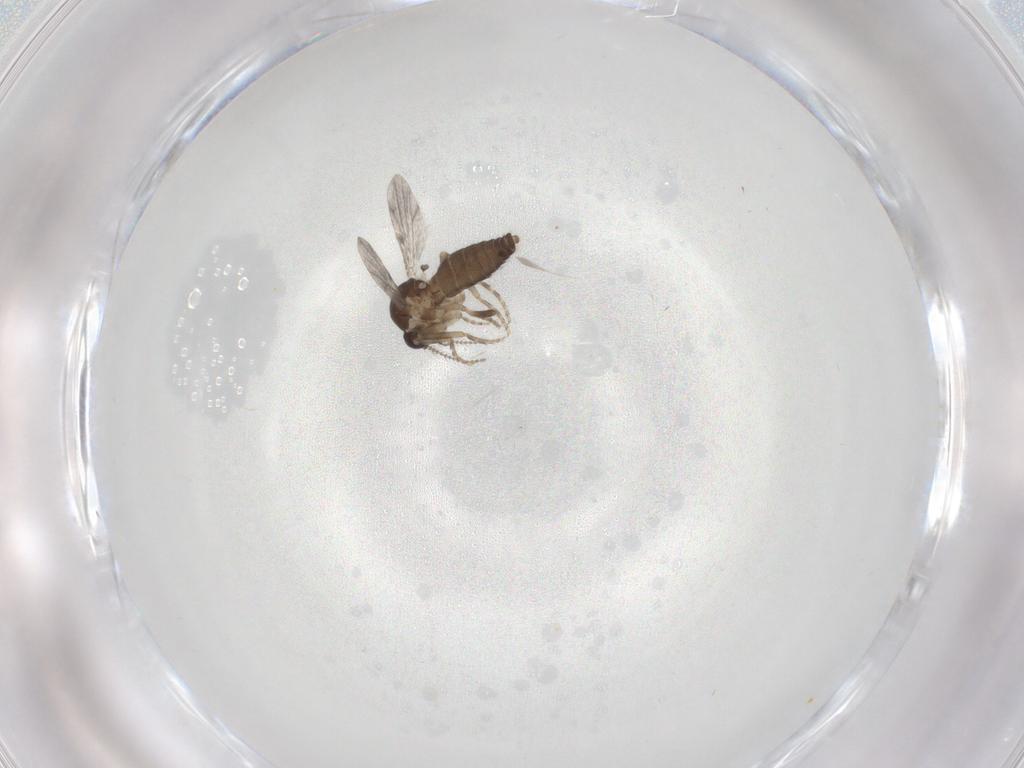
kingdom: Animalia
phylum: Arthropoda
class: Insecta
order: Diptera
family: Ceratopogonidae
